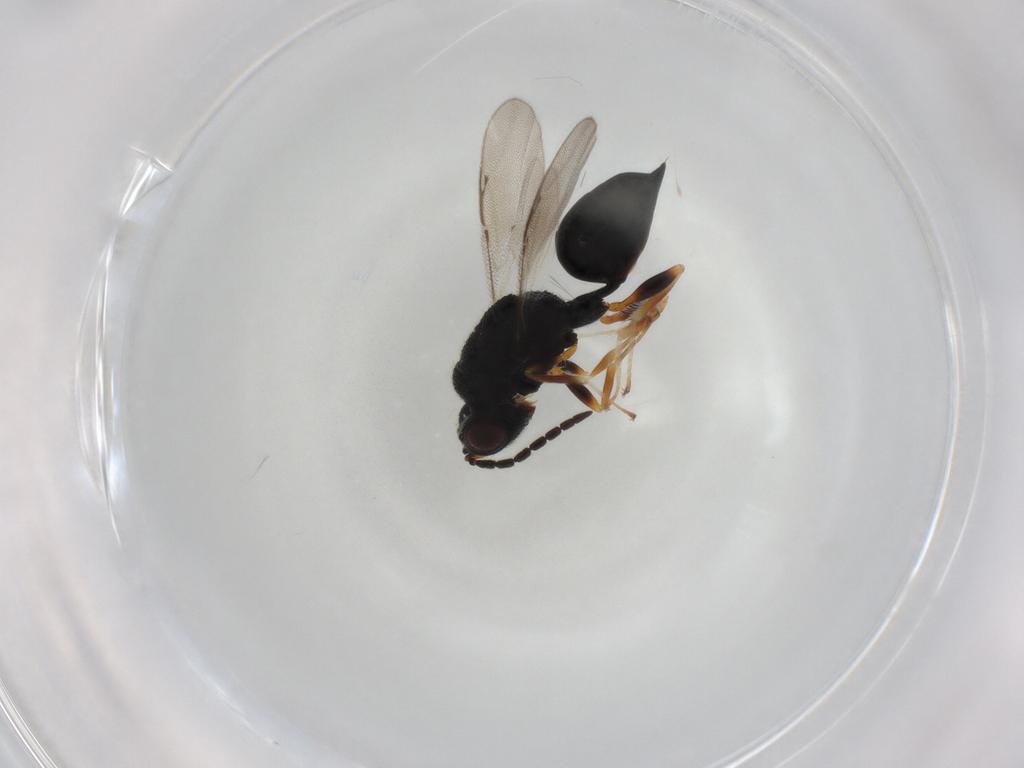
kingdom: Animalia
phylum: Arthropoda
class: Insecta
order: Hymenoptera
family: Eurytomidae
